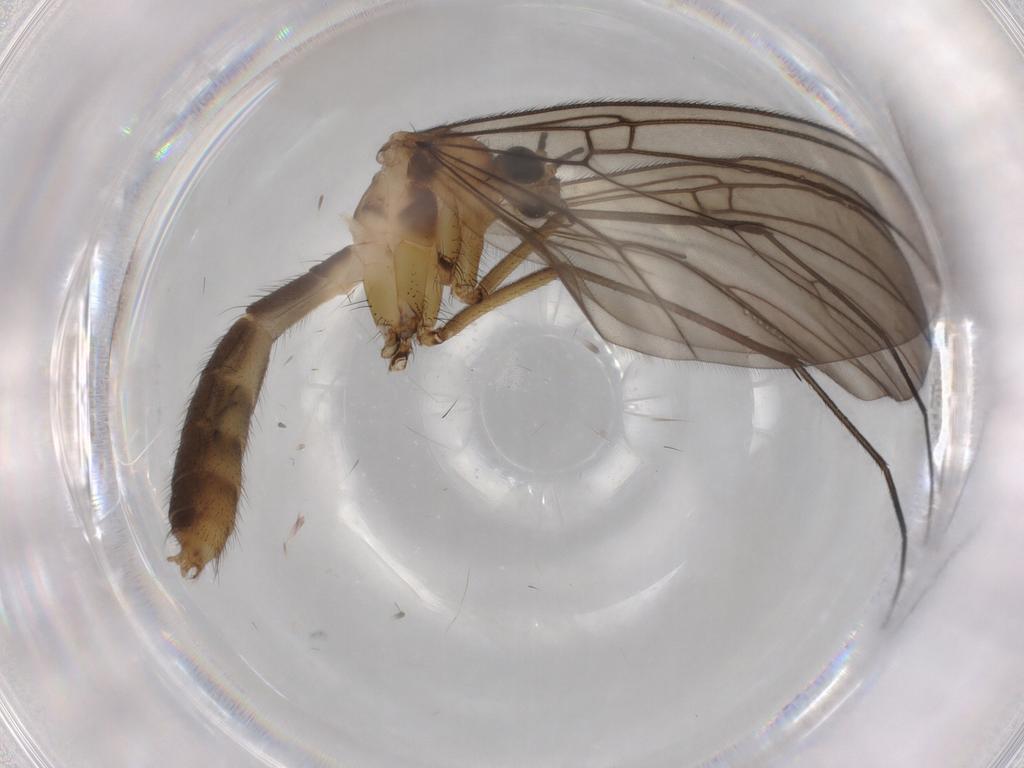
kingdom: Animalia
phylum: Arthropoda
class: Insecta
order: Diptera
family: Mycetophilidae
